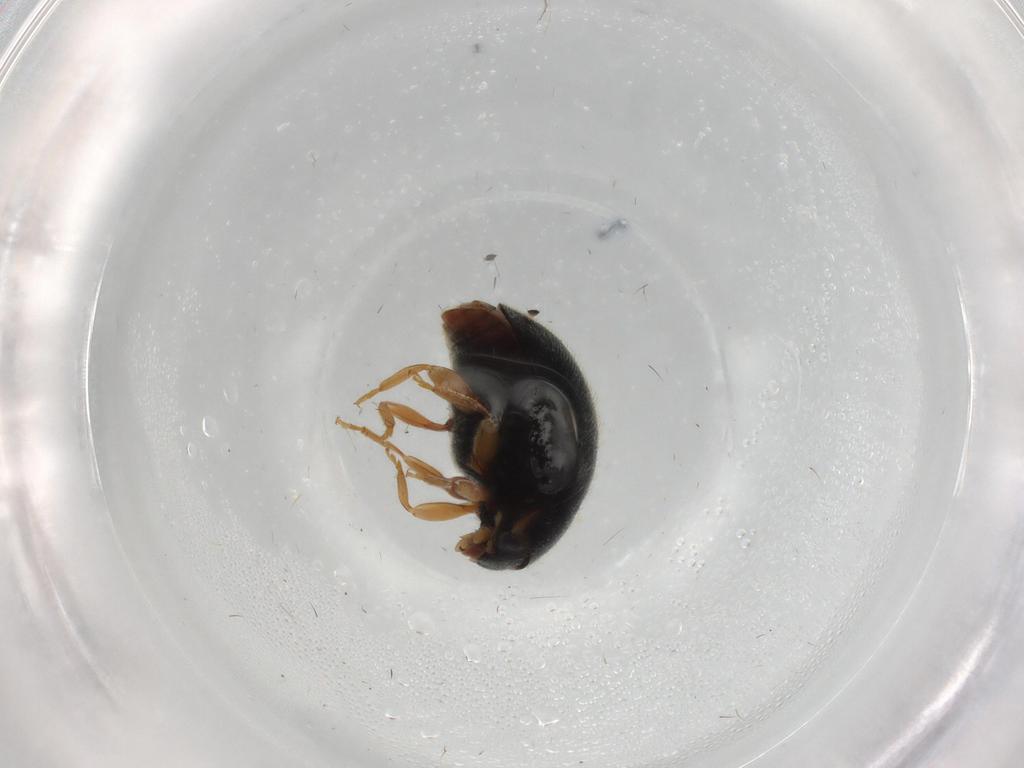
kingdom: Animalia
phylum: Arthropoda
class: Insecta
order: Coleoptera
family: Coccinellidae
